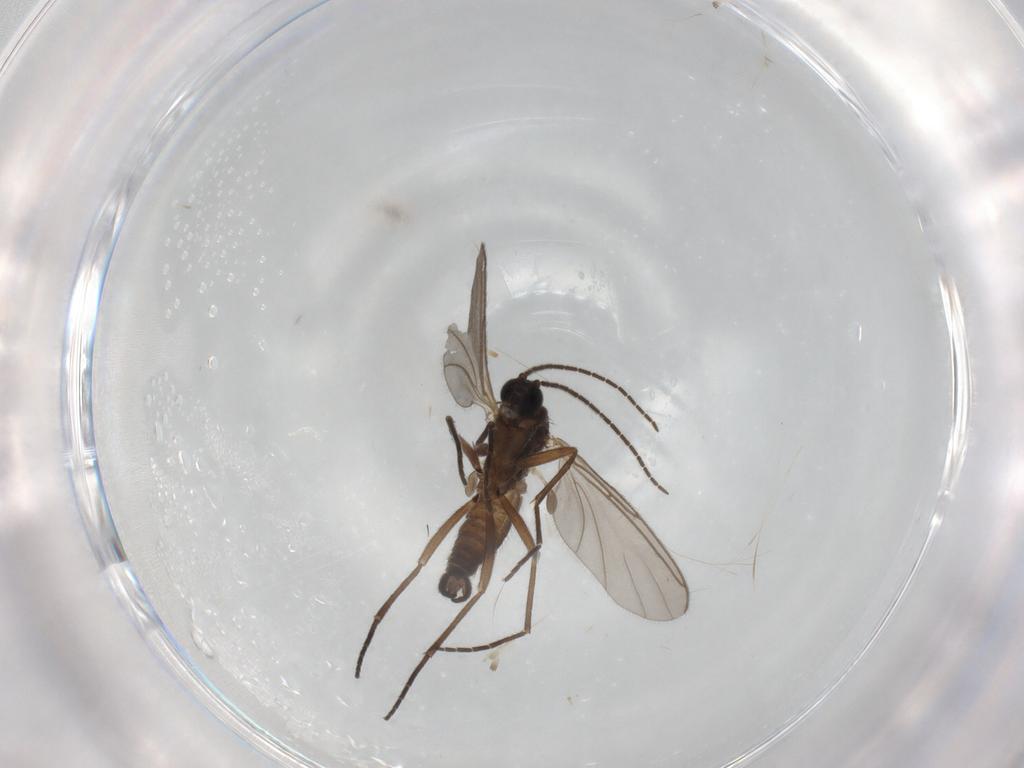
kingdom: Animalia
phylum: Arthropoda
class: Insecta
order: Diptera
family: Sciaridae
